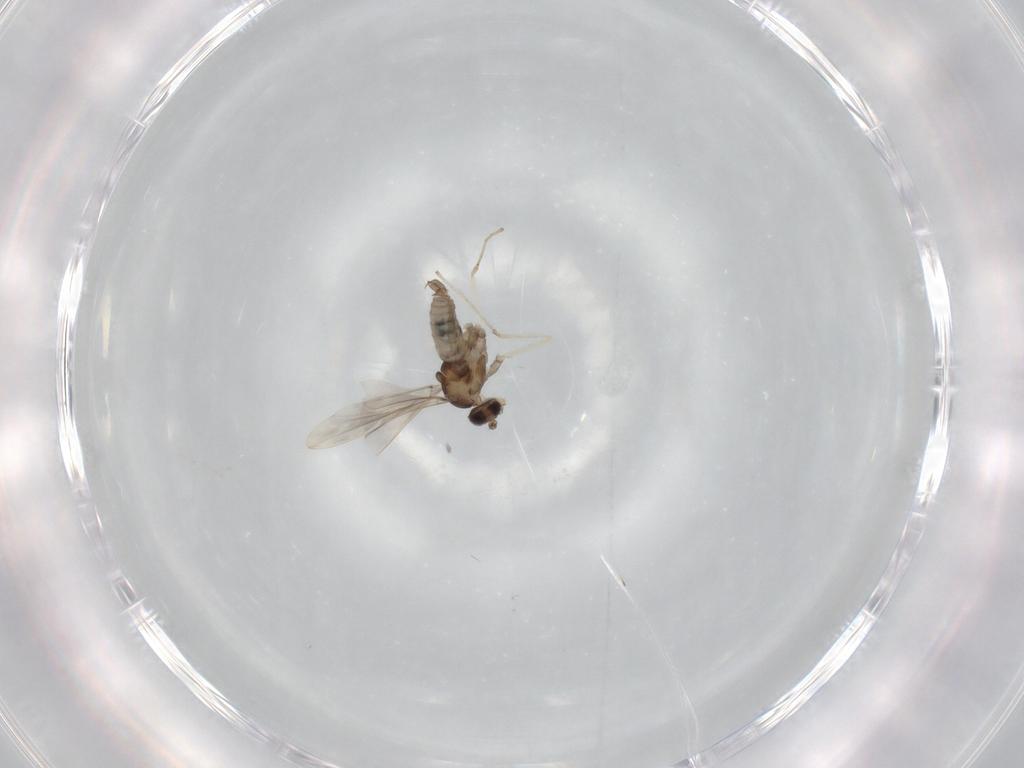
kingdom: Animalia
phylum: Arthropoda
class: Insecta
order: Diptera
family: Cecidomyiidae
